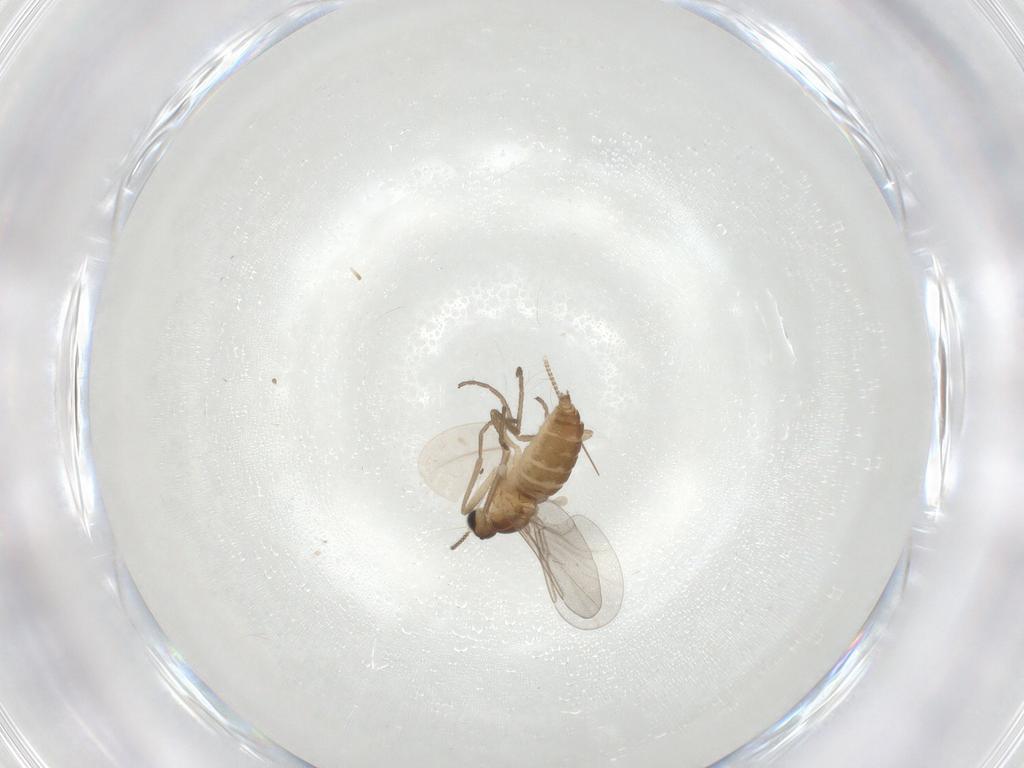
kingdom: Animalia
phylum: Arthropoda
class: Insecta
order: Diptera
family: Cecidomyiidae
